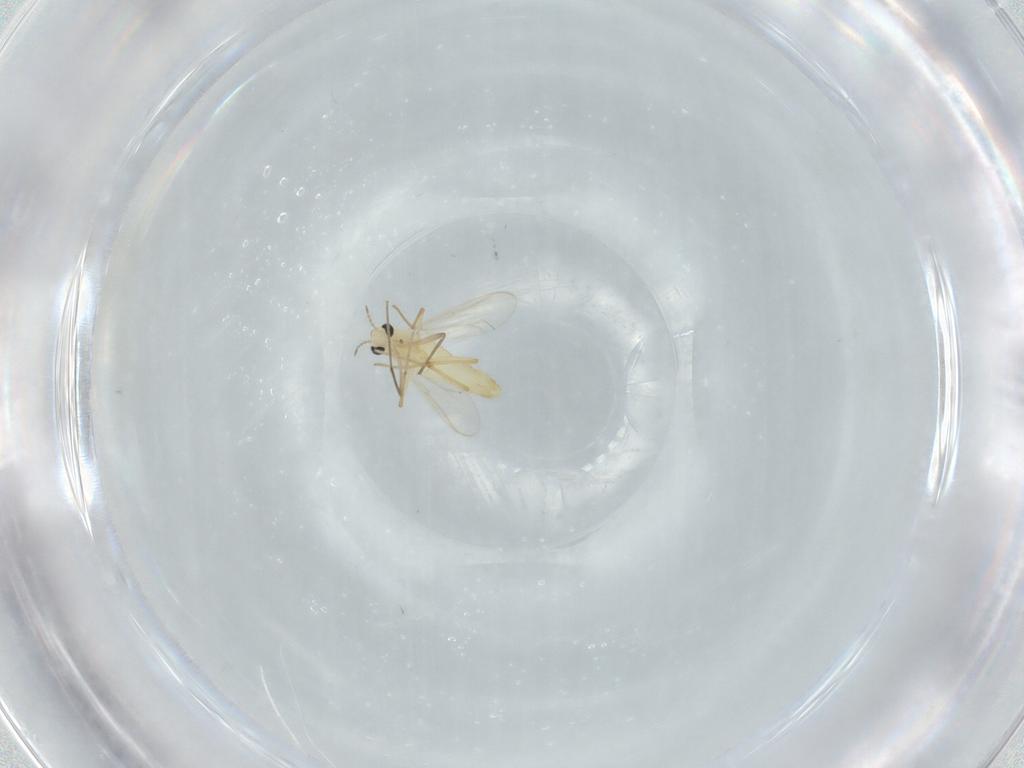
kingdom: Animalia
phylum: Arthropoda
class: Insecta
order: Diptera
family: Chironomidae
